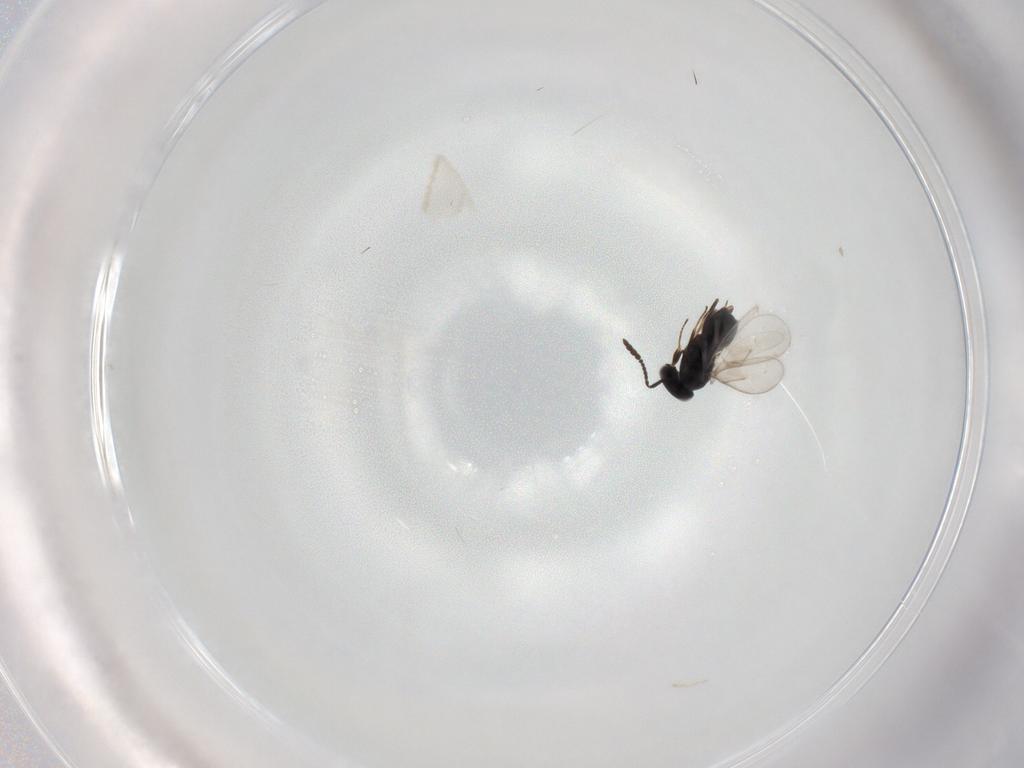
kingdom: Animalia
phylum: Arthropoda
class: Insecta
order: Hymenoptera
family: Scelionidae
